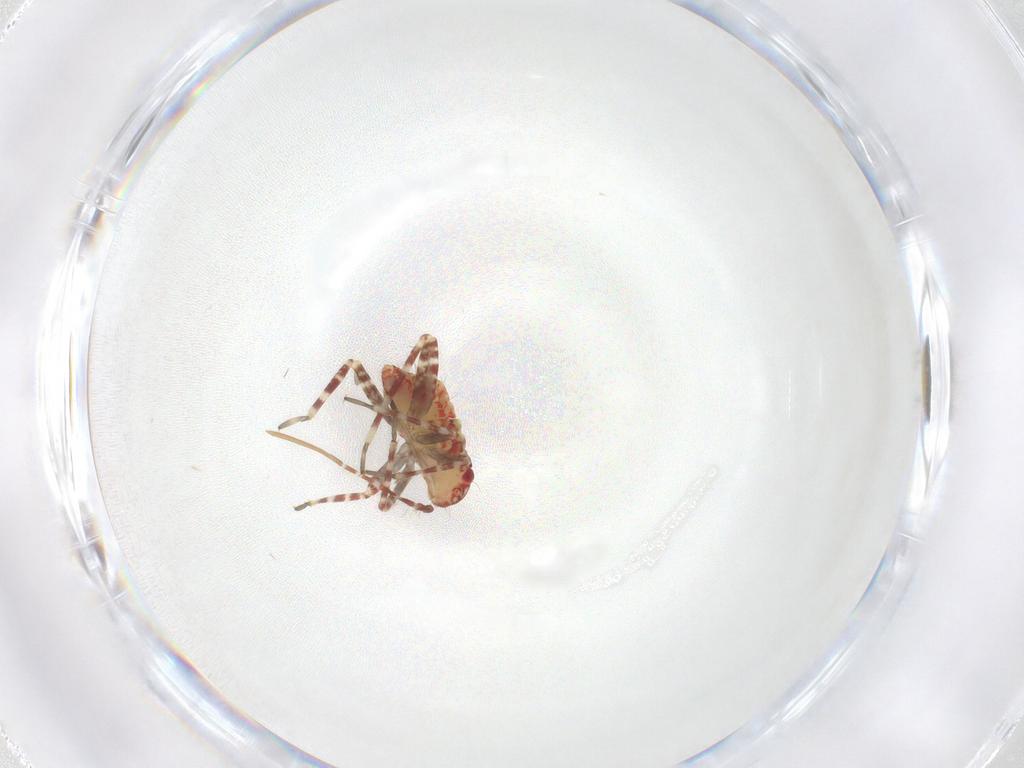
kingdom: Animalia
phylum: Arthropoda
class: Insecta
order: Hemiptera
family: Miridae
